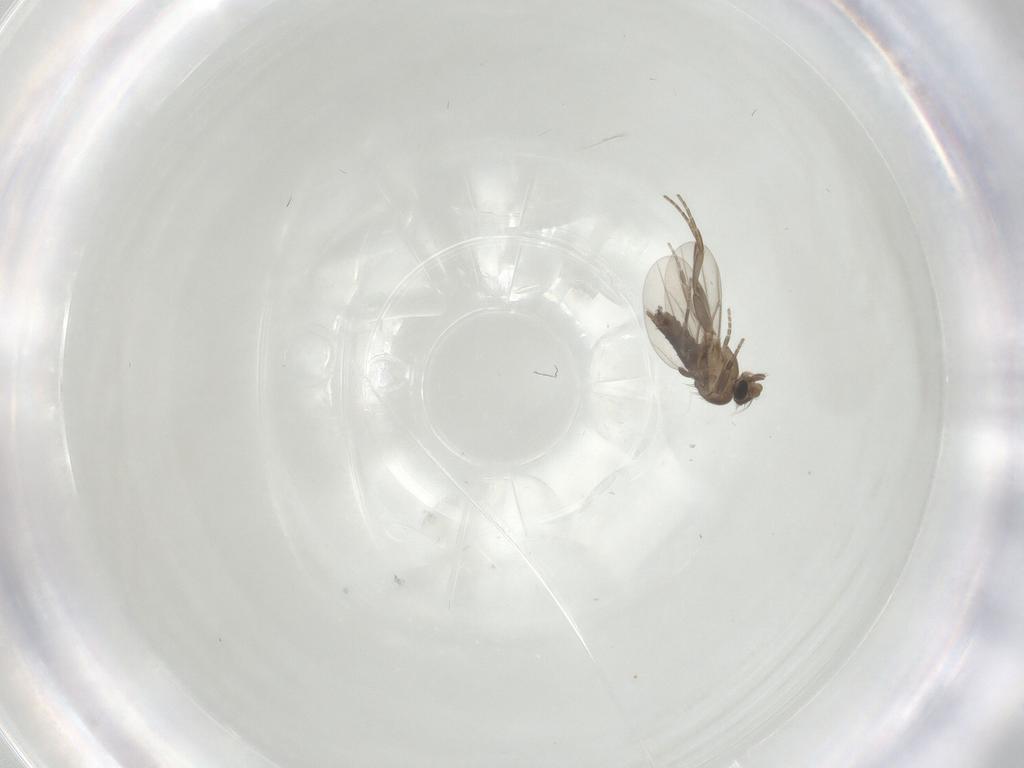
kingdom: Animalia
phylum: Arthropoda
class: Insecta
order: Diptera
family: Phoridae
